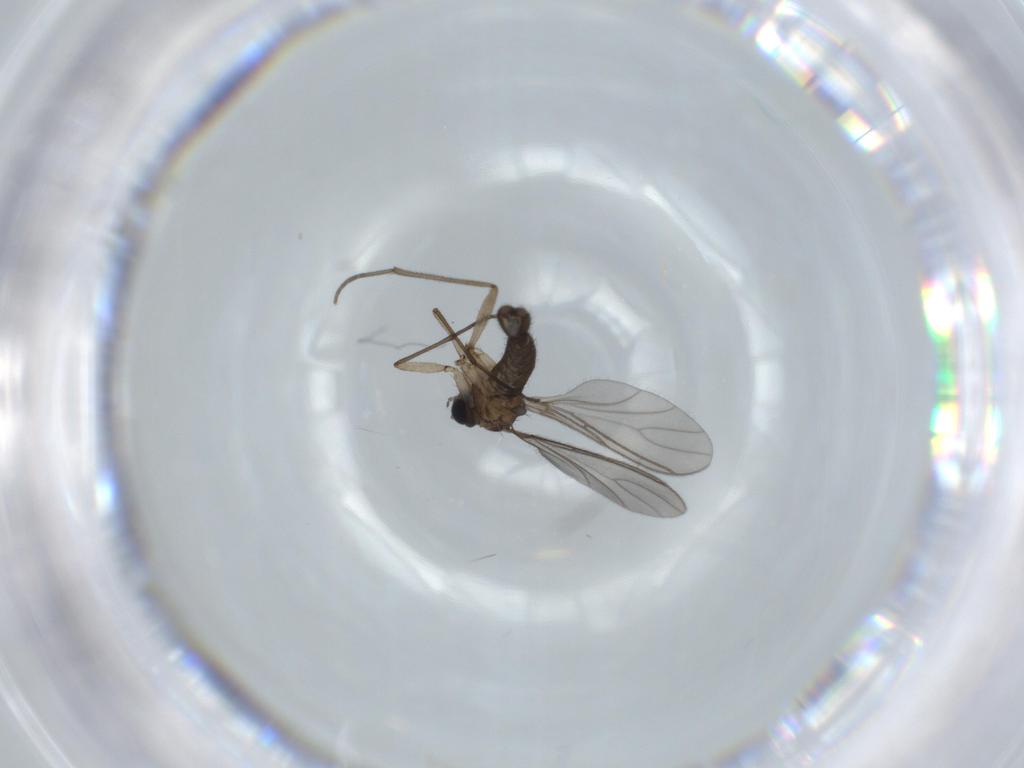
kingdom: Animalia
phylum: Arthropoda
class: Insecta
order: Diptera
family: Sciaridae
